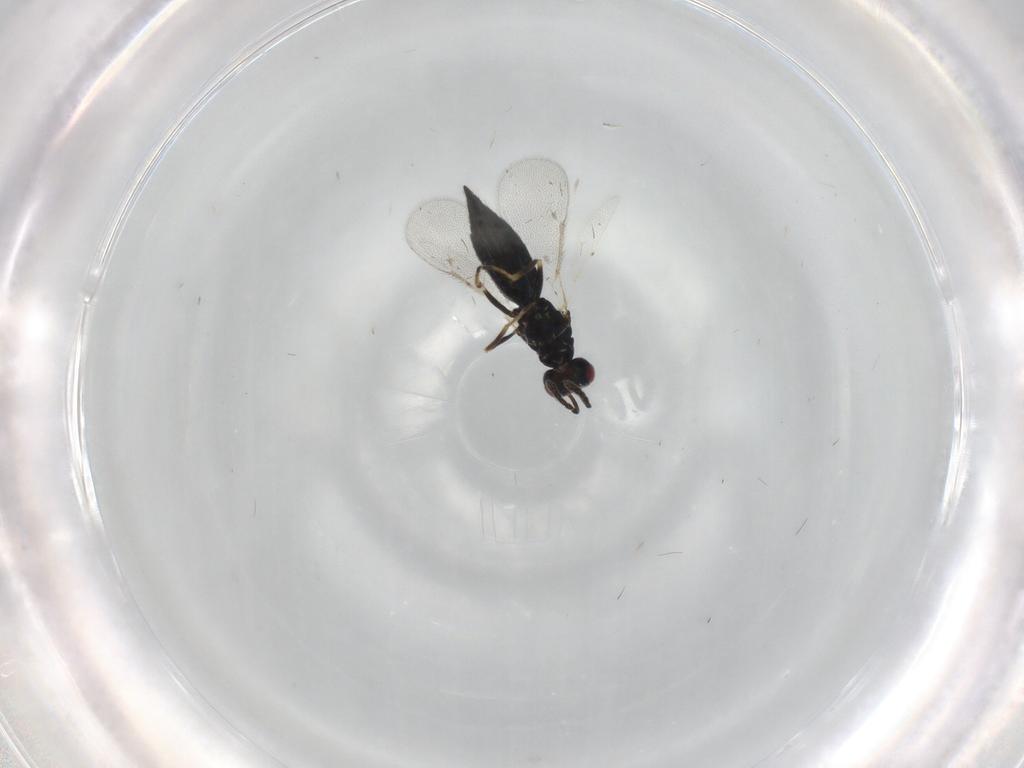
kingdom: Animalia
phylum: Arthropoda
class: Insecta
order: Hymenoptera
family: Eulophidae
